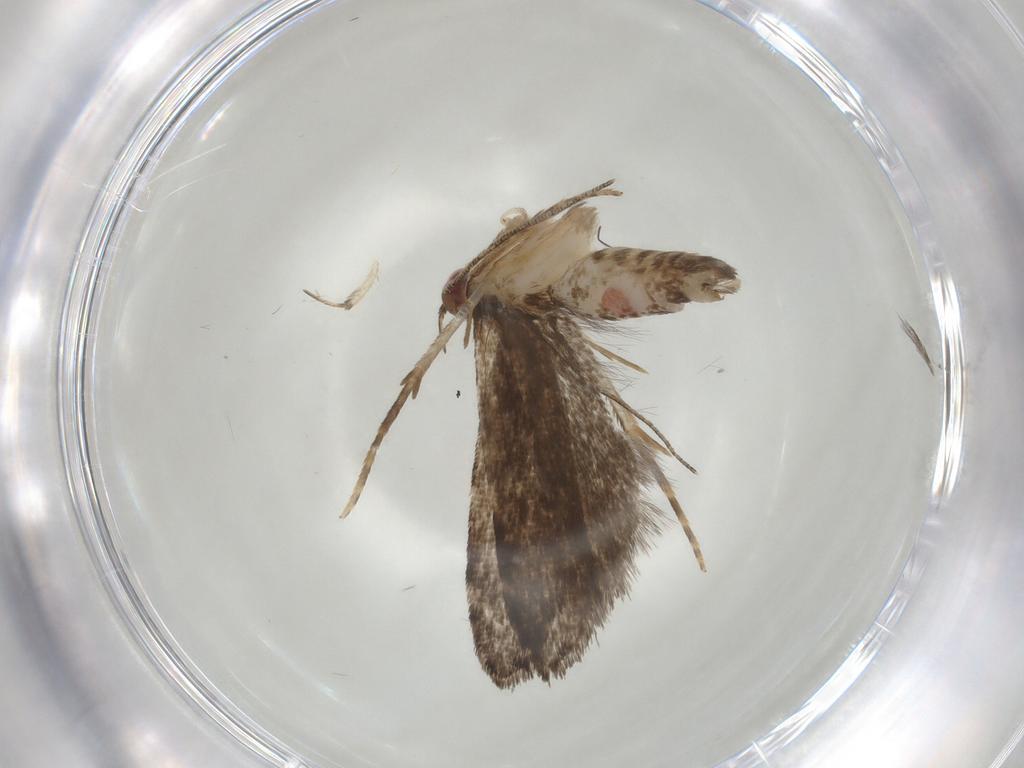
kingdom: Animalia
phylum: Arthropoda
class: Insecta
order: Lepidoptera
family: Gelechiidae
